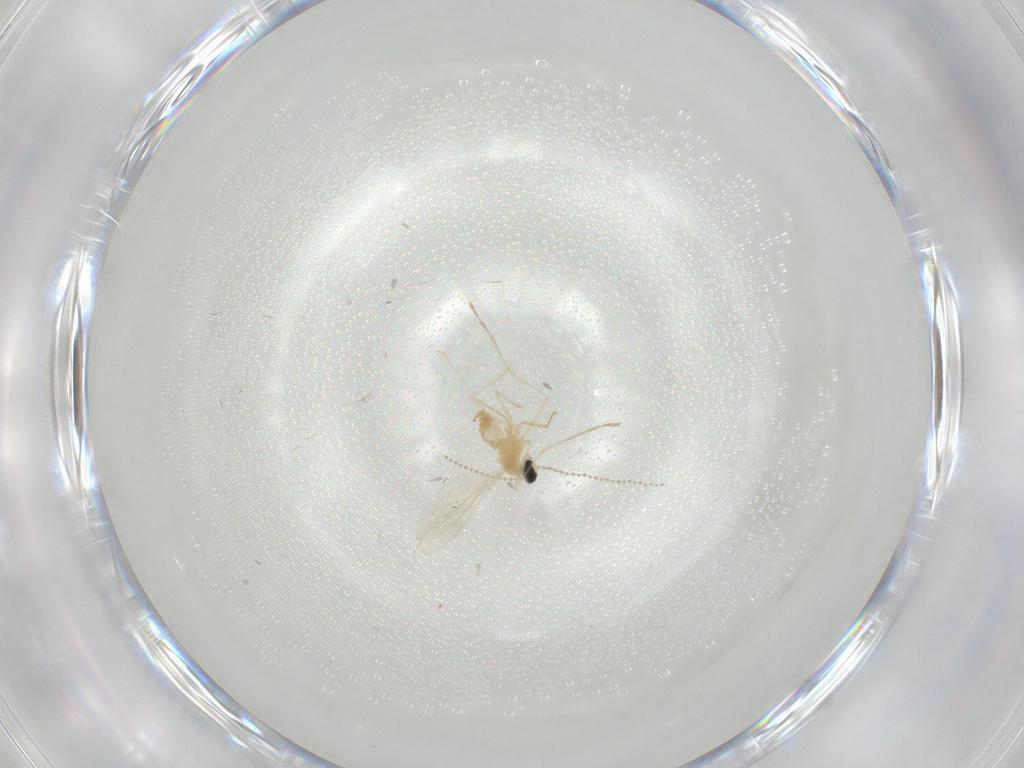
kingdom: Animalia
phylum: Arthropoda
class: Insecta
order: Diptera
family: Cecidomyiidae
